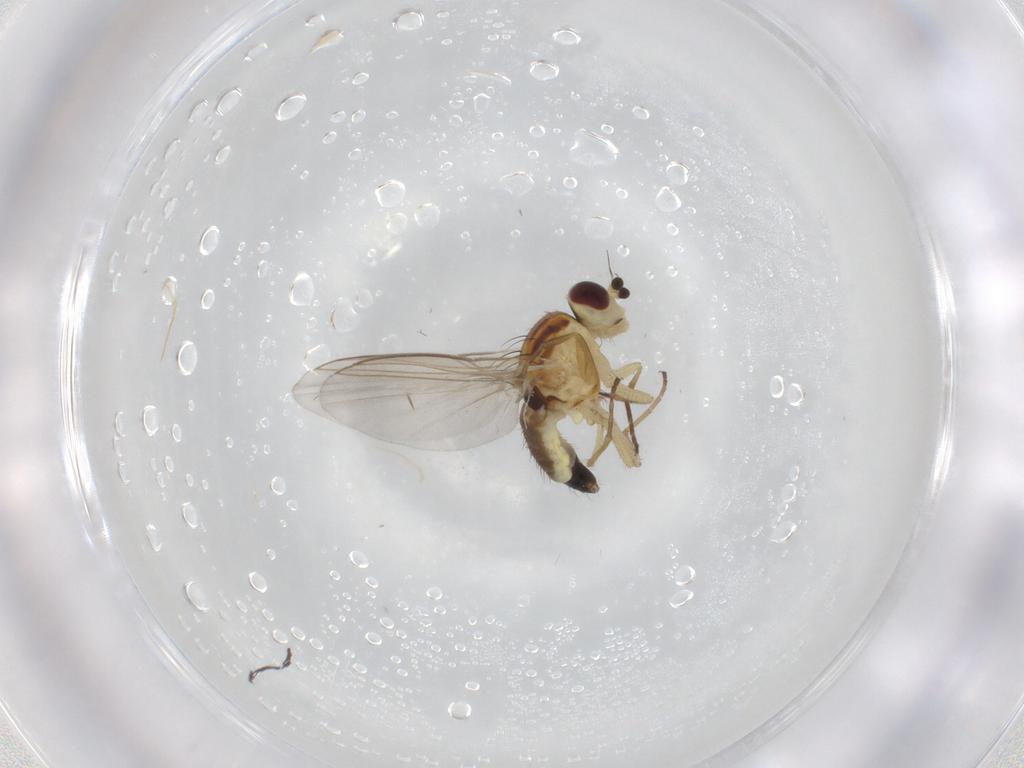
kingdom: Animalia
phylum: Arthropoda
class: Insecta
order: Diptera
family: Agromyzidae
